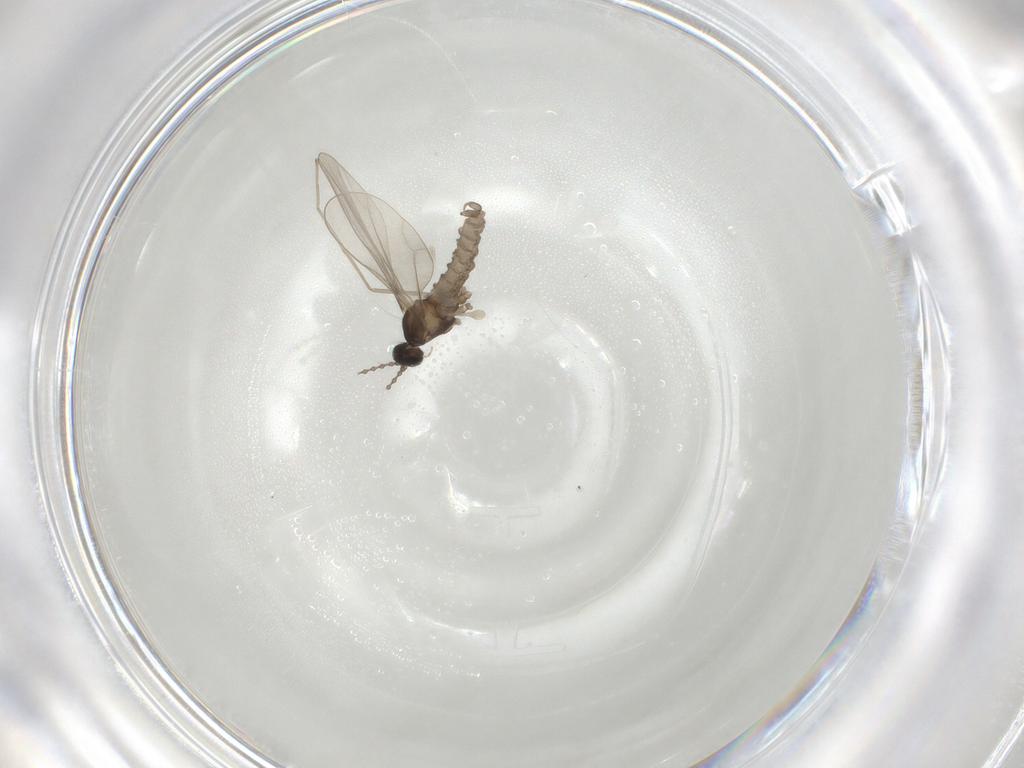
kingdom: Animalia
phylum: Arthropoda
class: Insecta
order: Diptera
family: Cecidomyiidae
